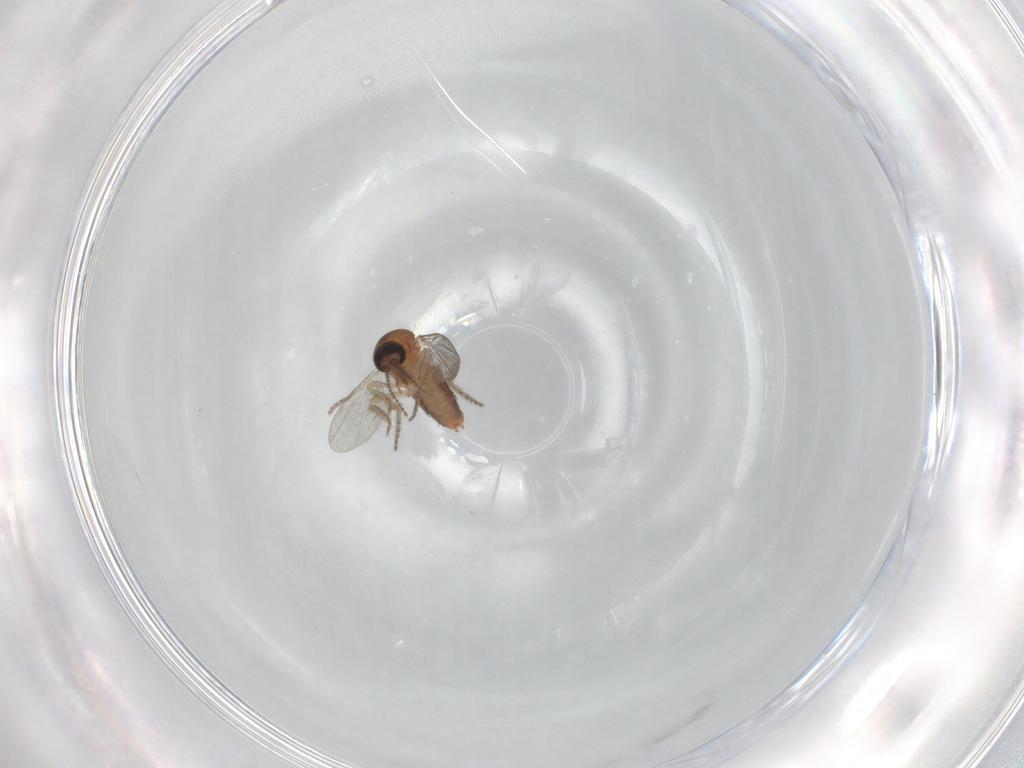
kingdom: Animalia
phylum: Arthropoda
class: Insecta
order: Diptera
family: Ceratopogonidae
